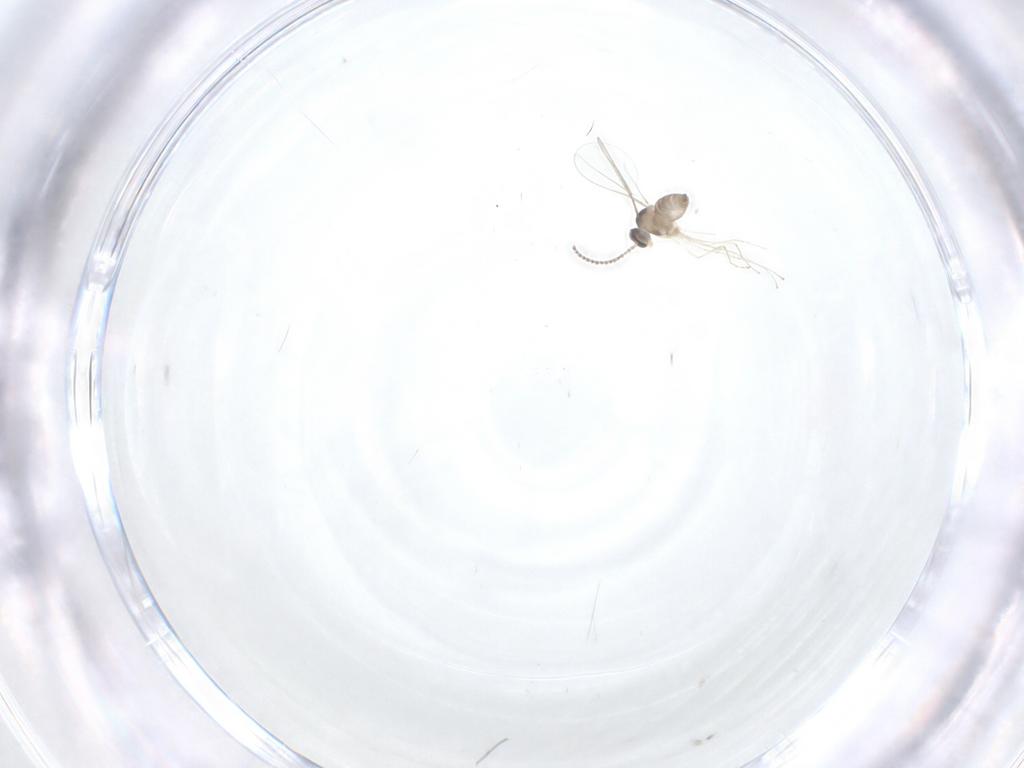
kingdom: Animalia
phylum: Arthropoda
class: Insecta
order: Diptera
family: Cecidomyiidae
